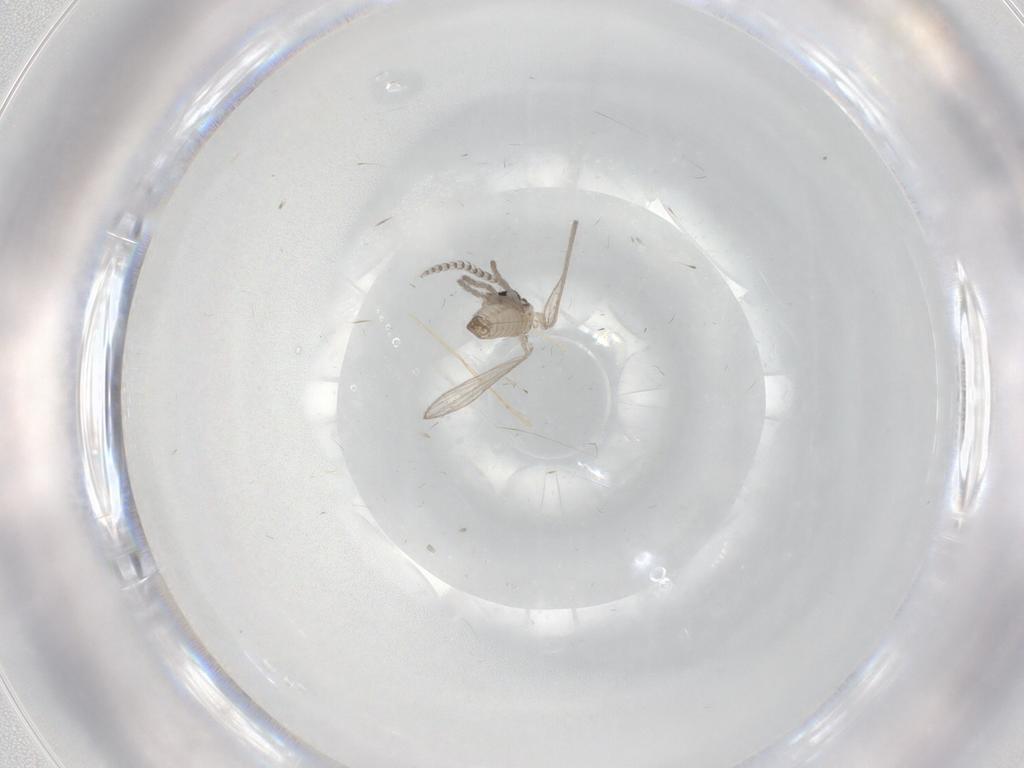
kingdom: Animalia
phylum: Arthropoda
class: Insecta
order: Diptera
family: Psychodidae
